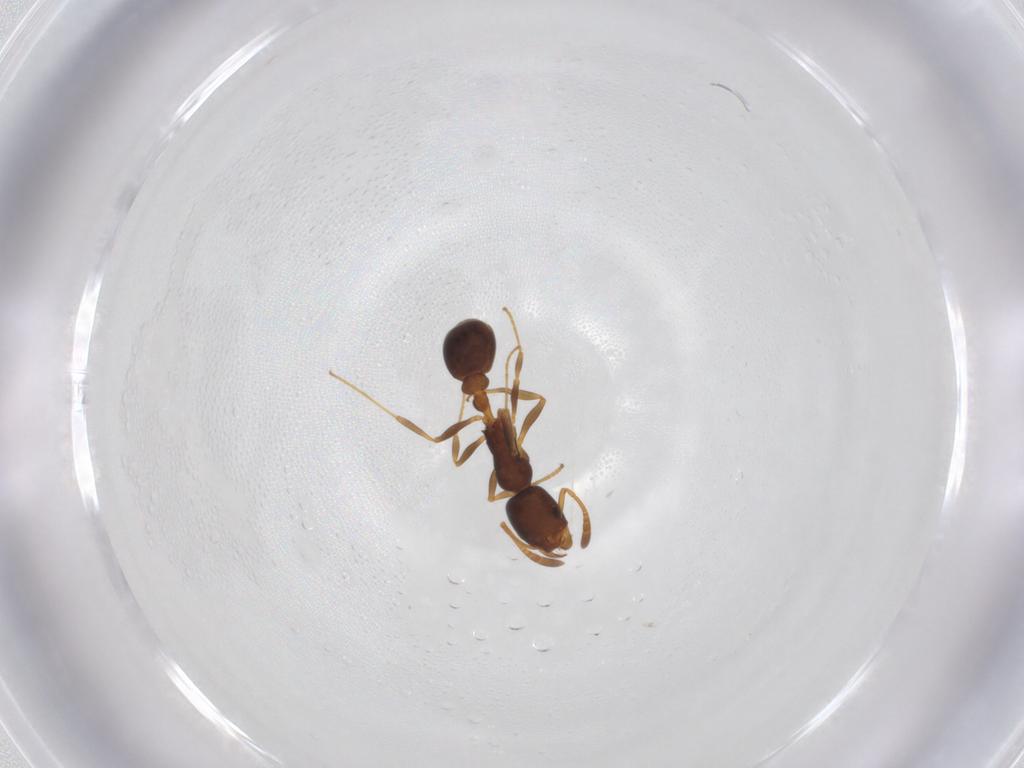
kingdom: Animalia
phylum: Arthropoda
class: Insecta
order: Hymenoptera
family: Formicidae
